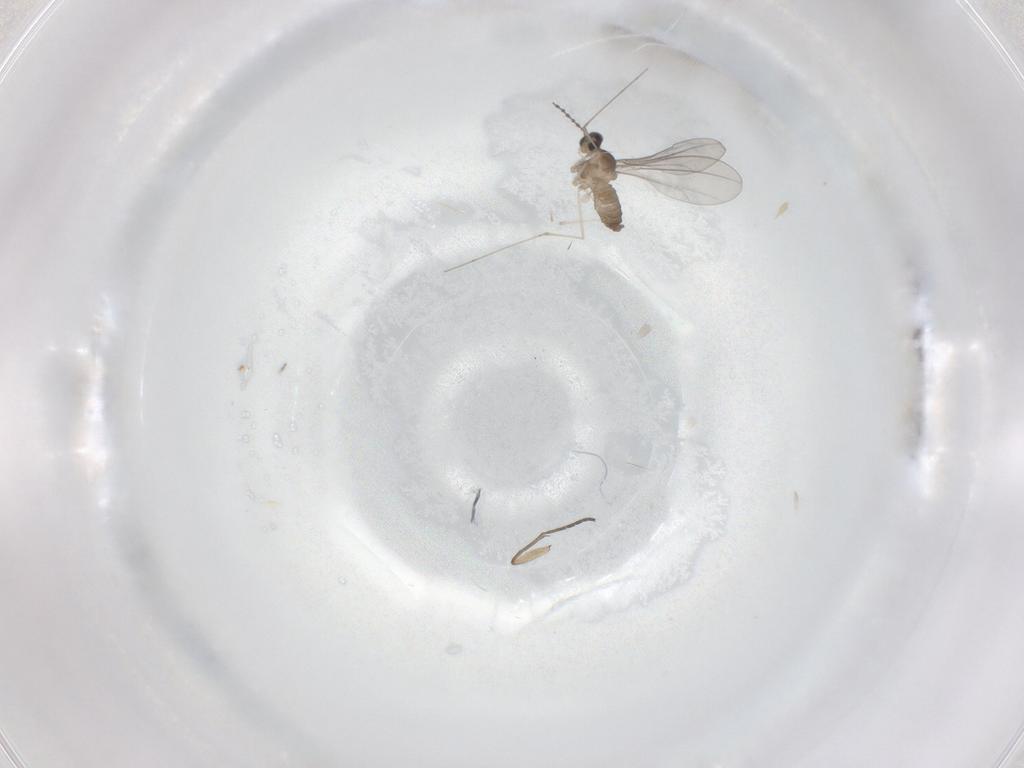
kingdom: Animalia
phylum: Arthropoda
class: Insecta
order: Diptera
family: Sciaridae
